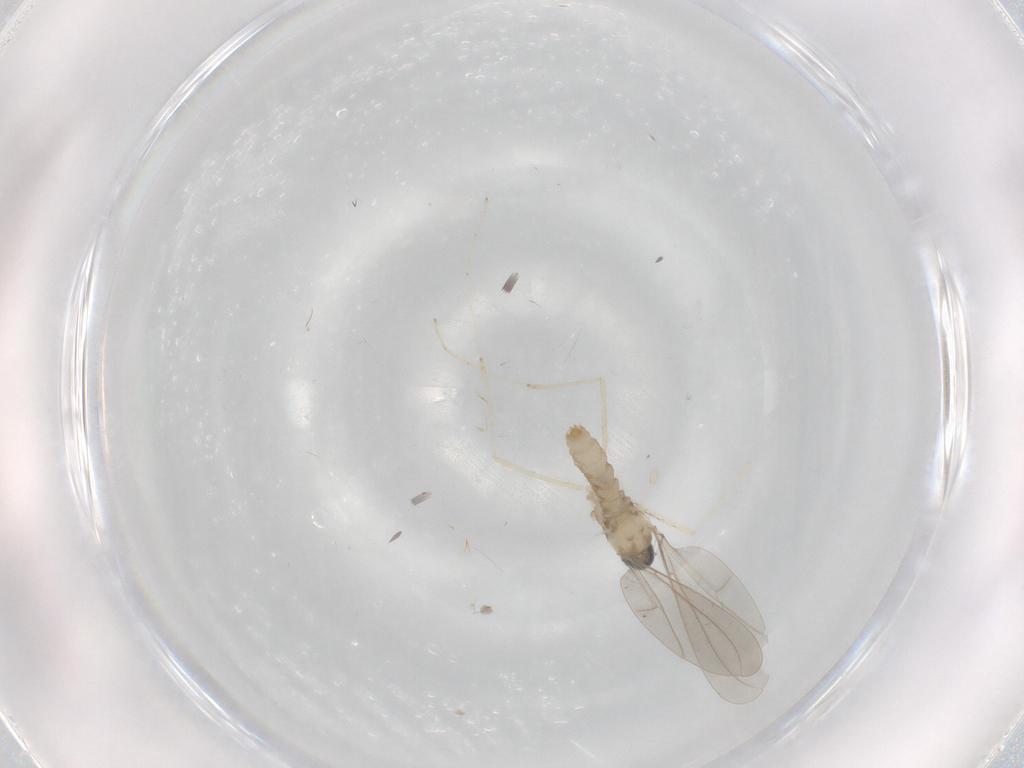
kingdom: Animalia
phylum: Arthropoda
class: Insecta
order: Diptera
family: Cecidomyiidae
